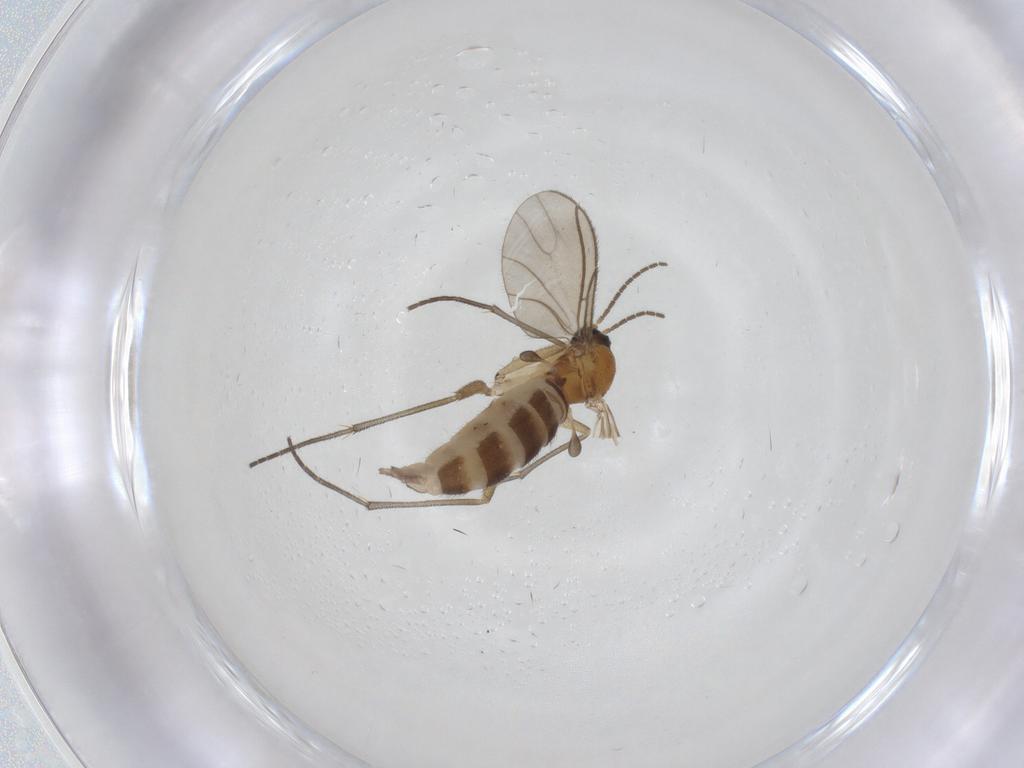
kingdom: Animalia
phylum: Arthropoda
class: Insecta
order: Diptera
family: Sciaridae
